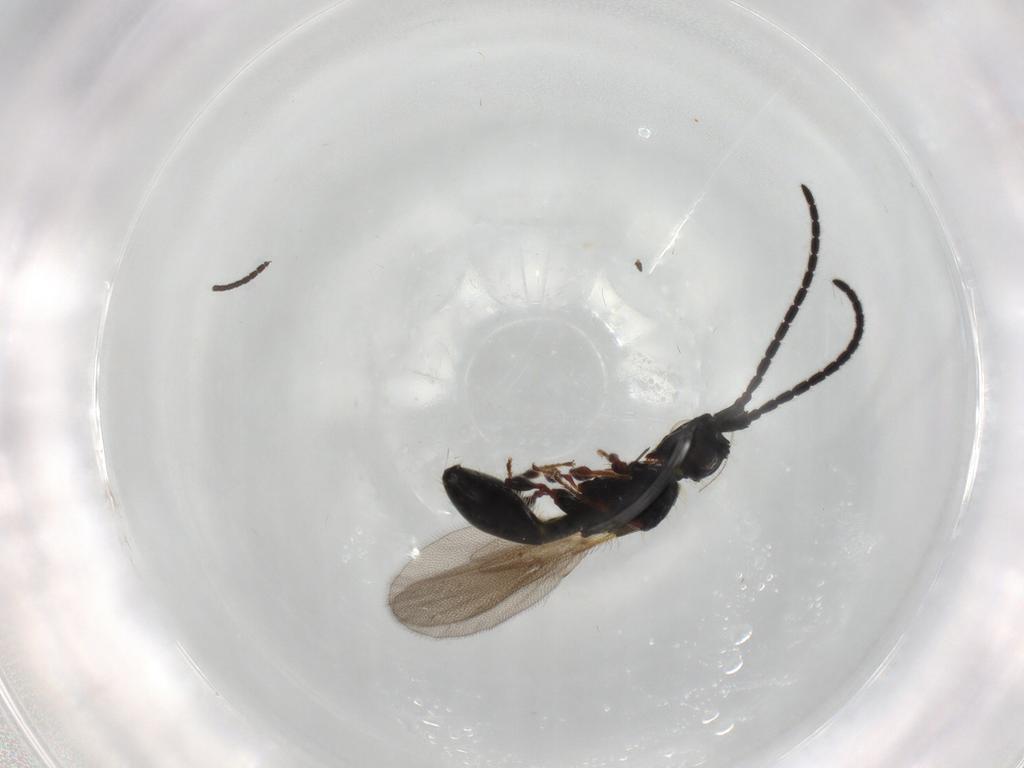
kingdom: Animalia
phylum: Arthropoda
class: Insecta
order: Hymenoptera
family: Diapriidae
